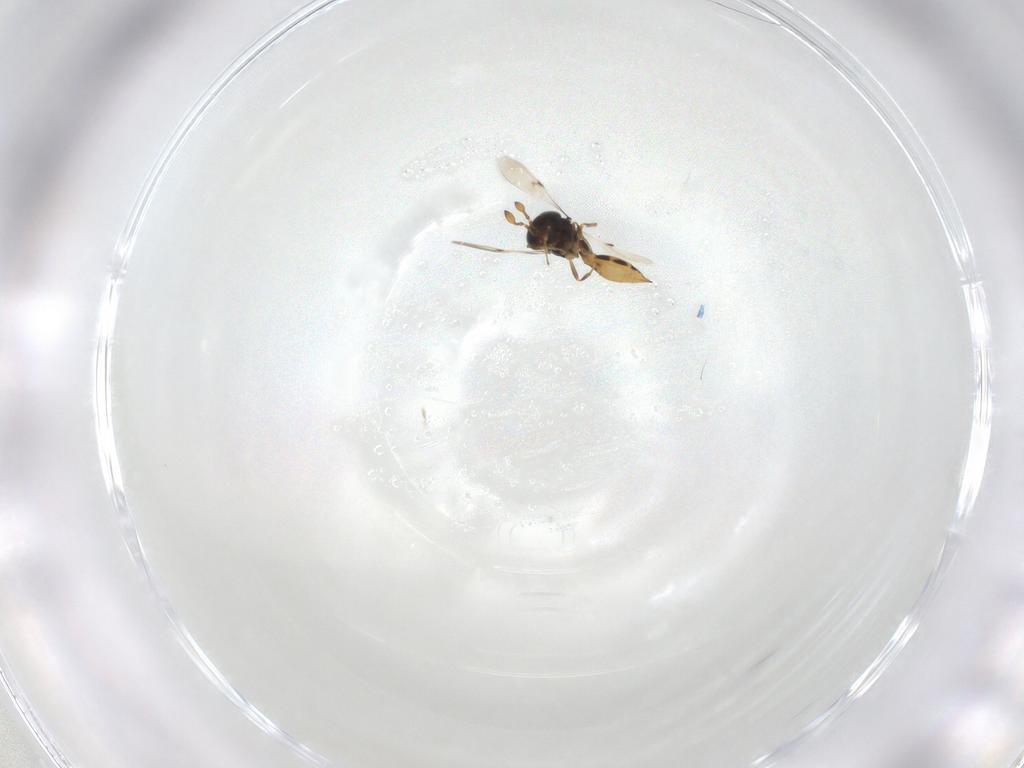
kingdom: Animalia
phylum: Arthropoda
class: Insecta
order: Hymenoptera
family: Scelionidae
